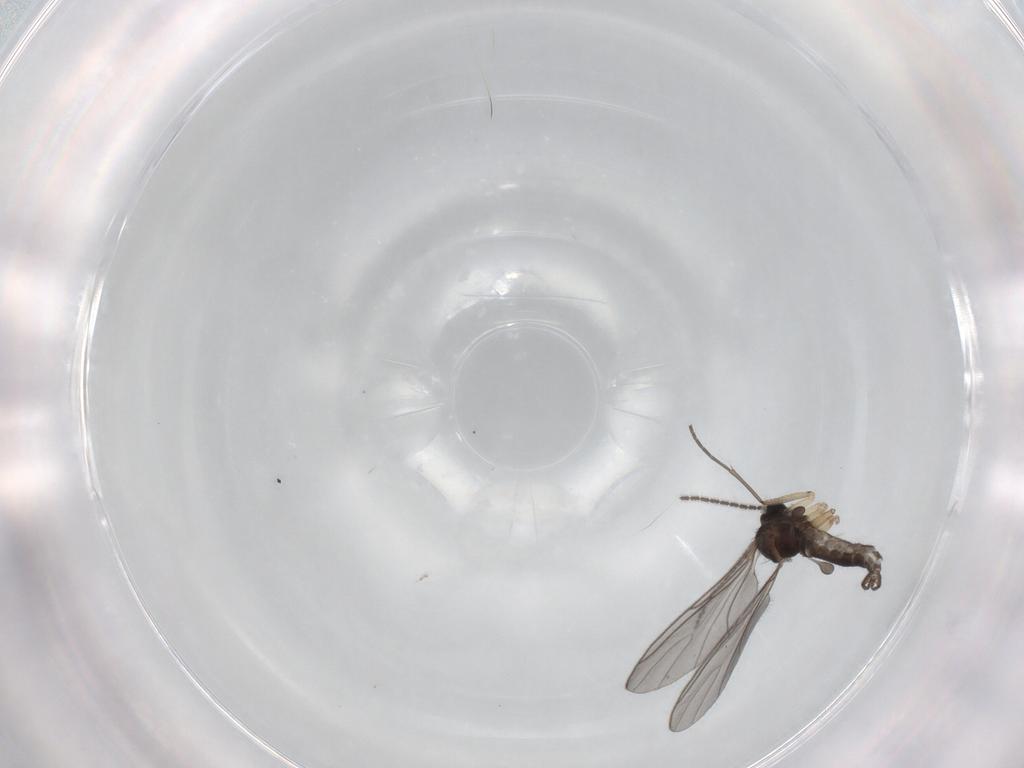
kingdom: Animalia
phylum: Arthropoda
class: Insecta
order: Diptera
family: Sciaridae
